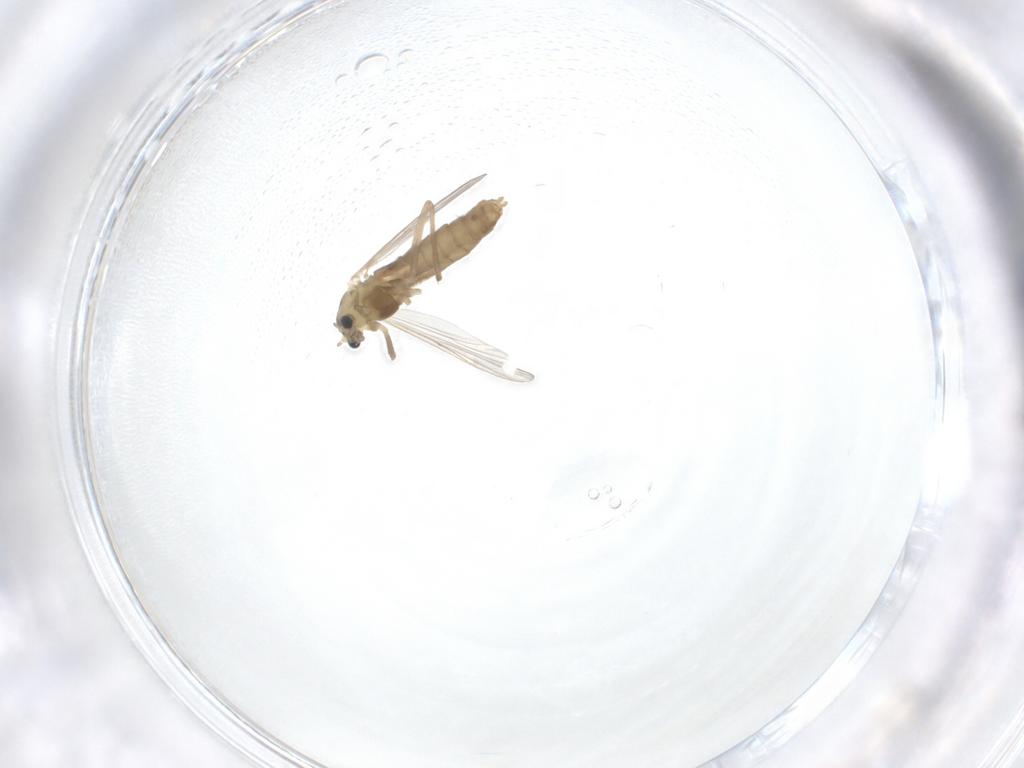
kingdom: Animalia
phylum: Arthropoda
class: Insecta
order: Diptera
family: Chironomidae
